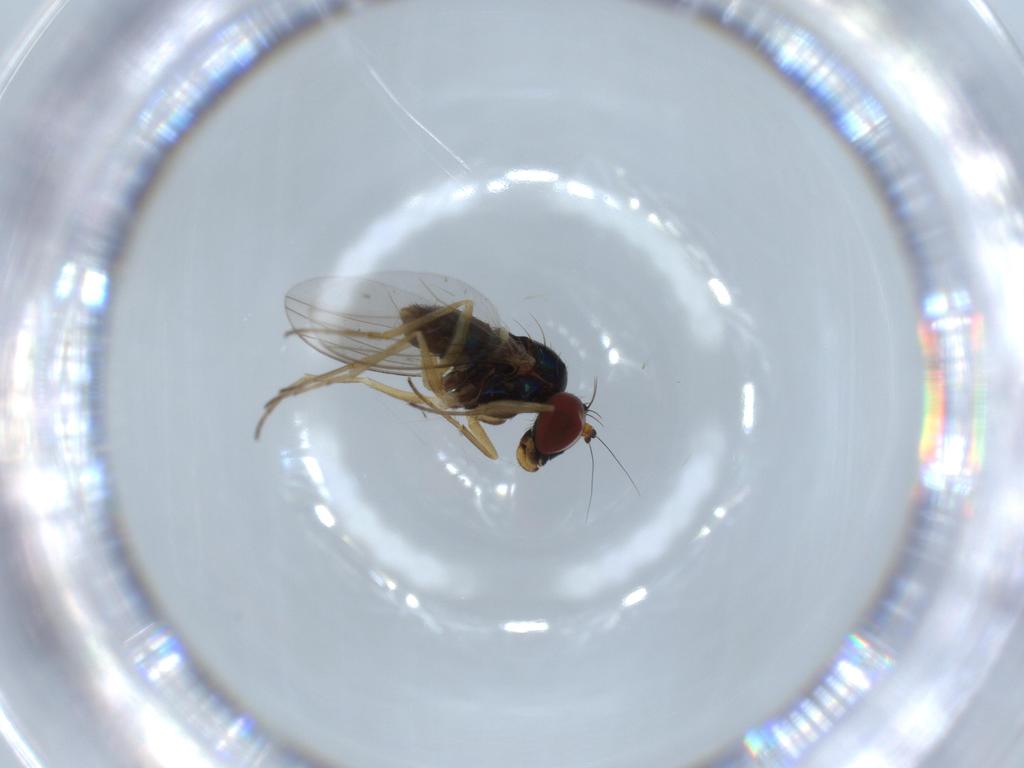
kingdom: Animalia
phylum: Arthropoda
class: Insecta
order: Diptera
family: Dolichopodidae
